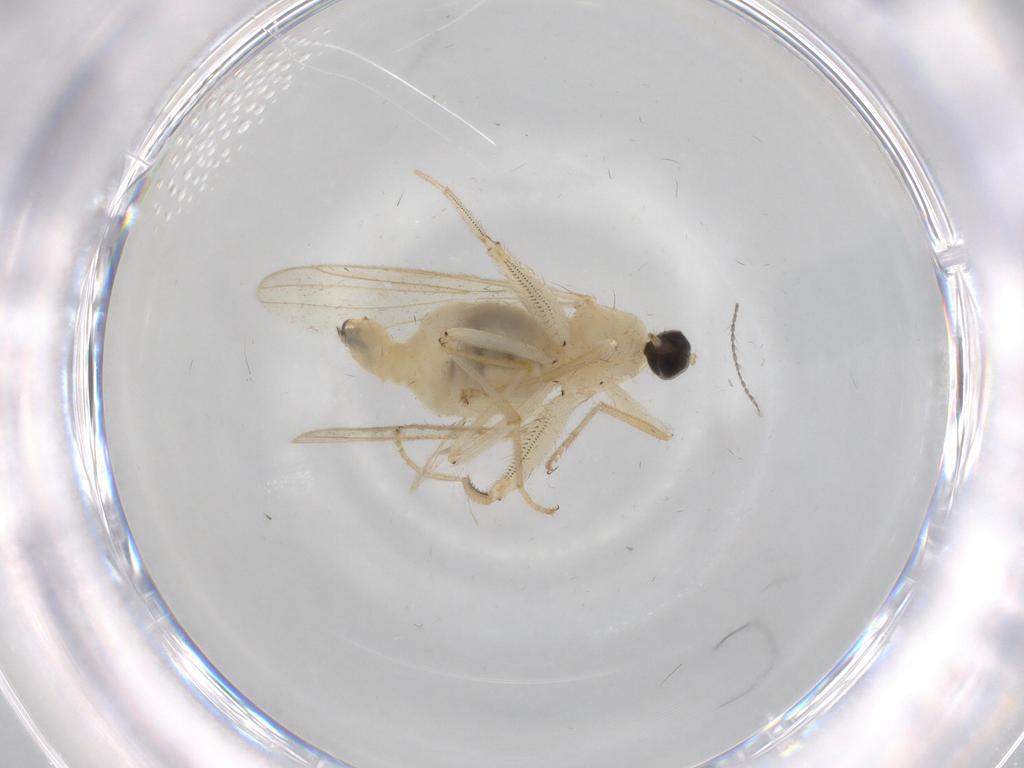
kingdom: Animalia
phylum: Arthropoda
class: Insecta
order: Diptera
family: Hybotidae
